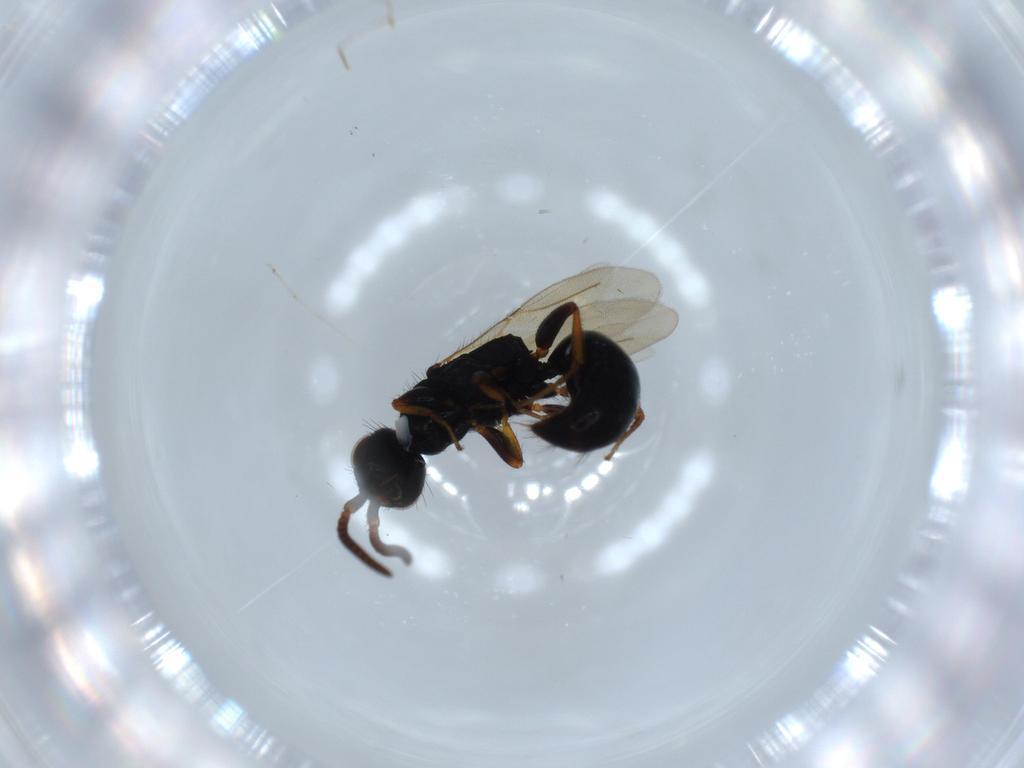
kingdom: Animalia
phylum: Arthropoda
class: Insecta
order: Hymenoptera
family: Bethylidae
